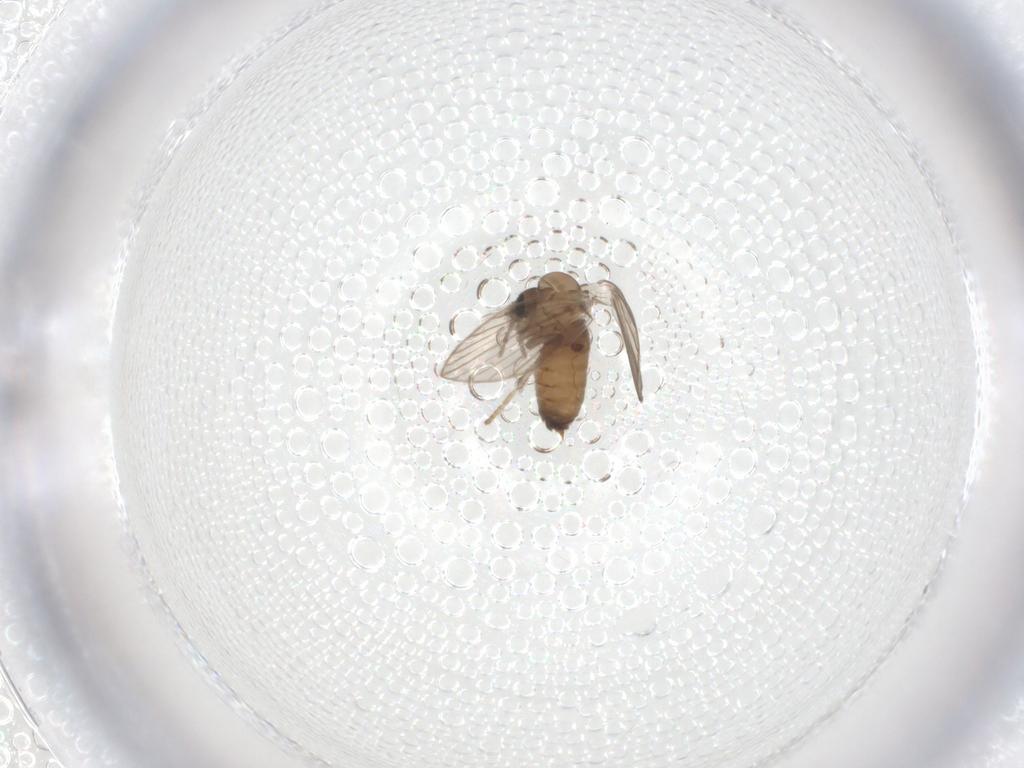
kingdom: Animalia
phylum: Arthropoda
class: Insecta
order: Diptera
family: Psychodidae
